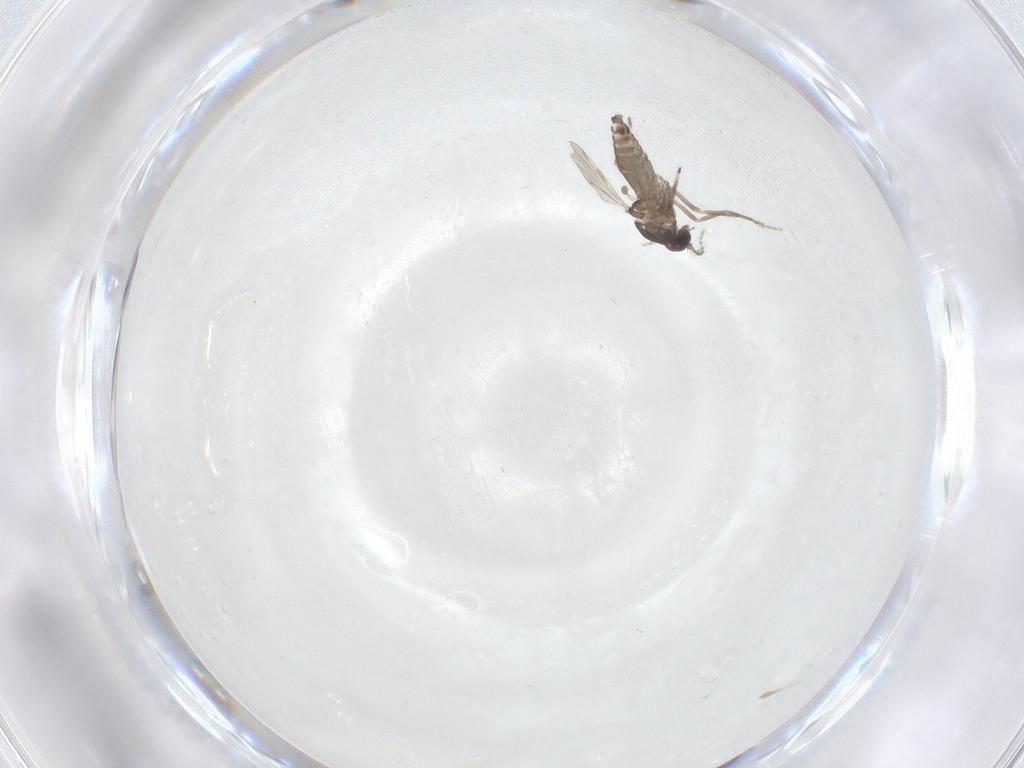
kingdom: Animalia
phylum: Arthropoda
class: Insecta
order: Diptera
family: Ceratopogonidae
